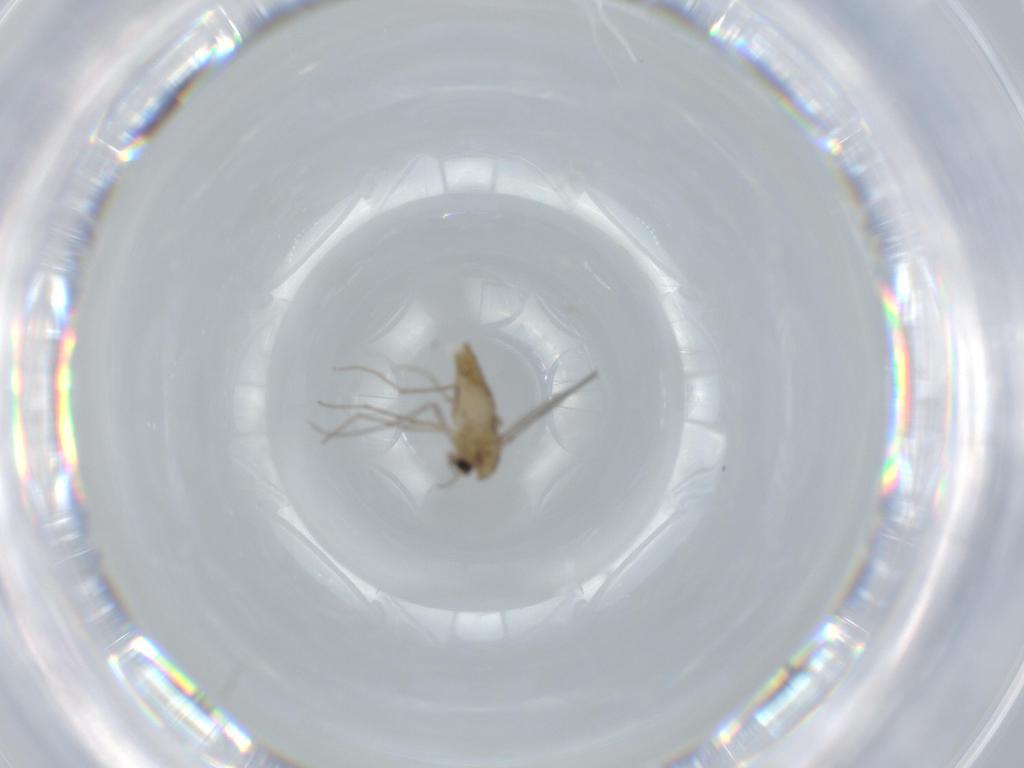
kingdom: Animalia
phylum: Arthropoda
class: Insecta
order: Diptera
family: Chironomidae
